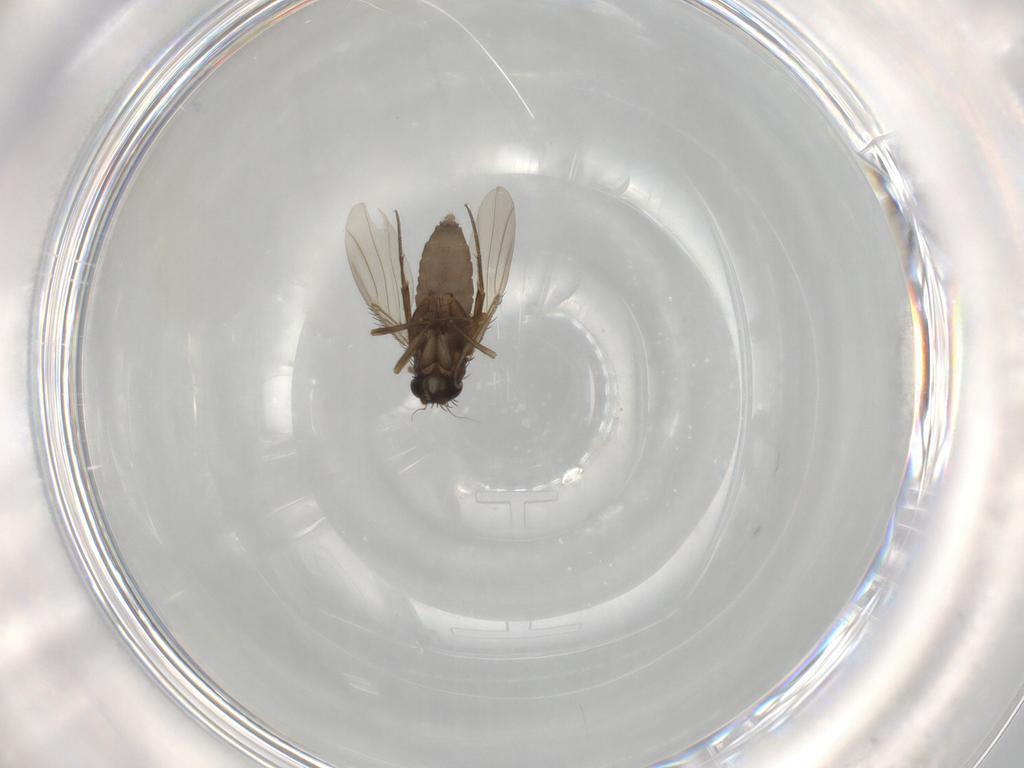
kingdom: Animalia
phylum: Arthropoda
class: Insecta
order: Diptera
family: Phoridae
